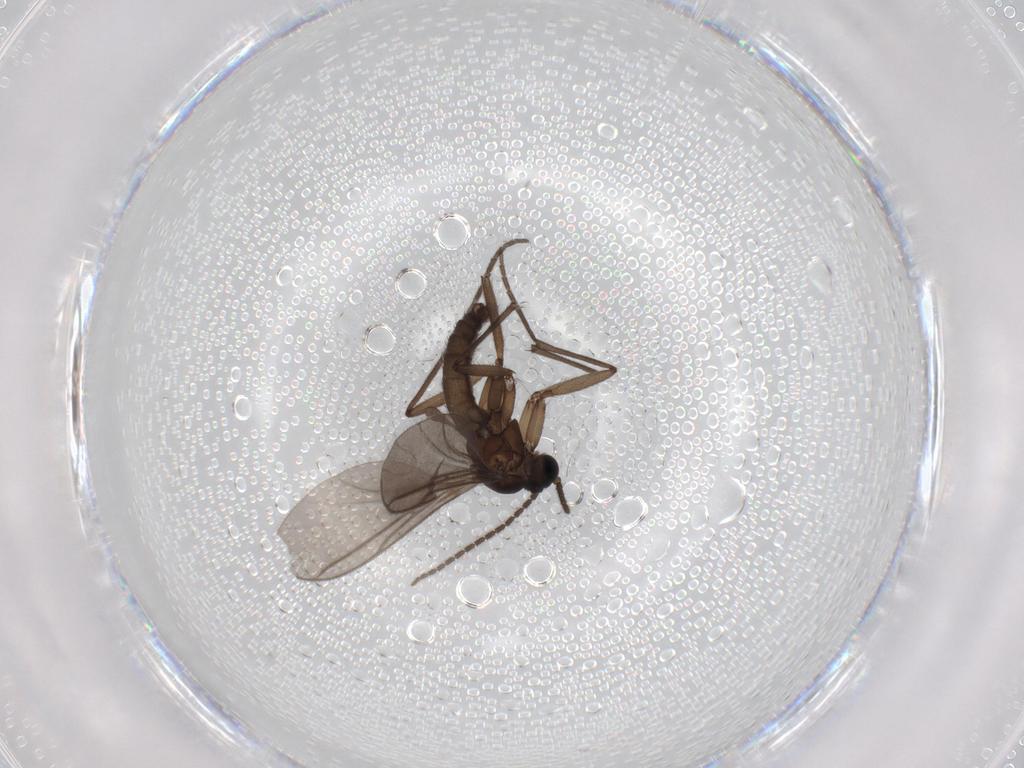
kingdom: Animalia
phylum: Arthropoda
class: Insecta
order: Diptera
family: Sciaridae
